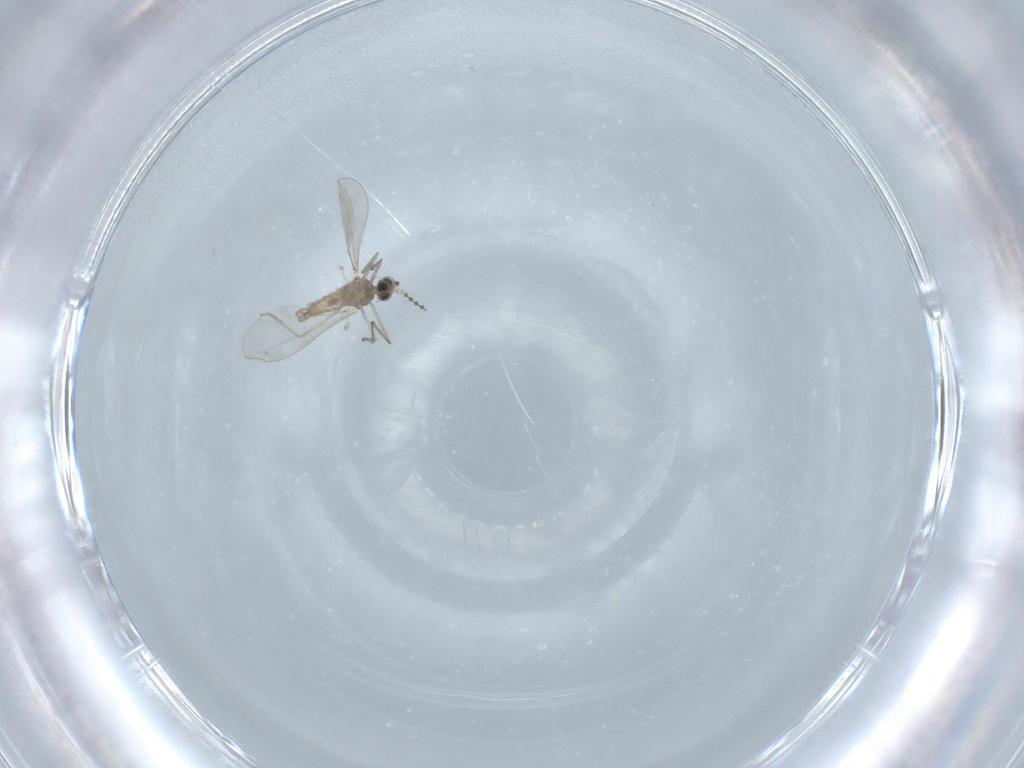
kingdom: Animalia
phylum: Arthropoda
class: Insecta
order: Diptera
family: Cecidomyiidae
